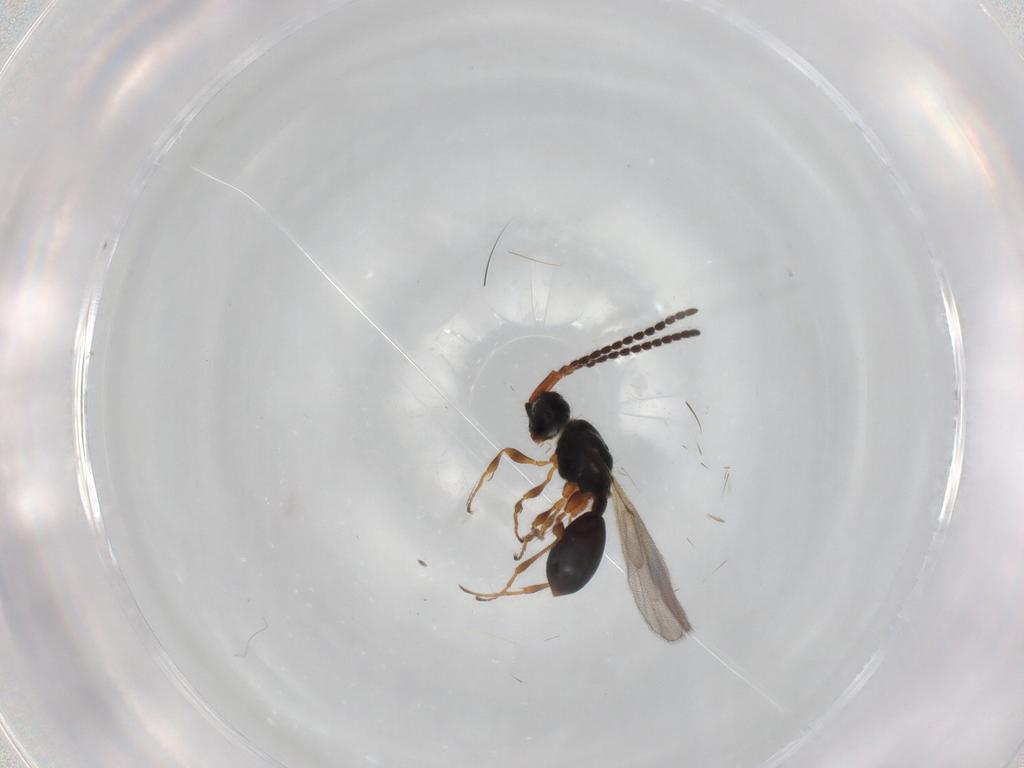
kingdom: Animalia
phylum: Arthropoda
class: Insecta
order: Hymenoptera
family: Diapriidae
